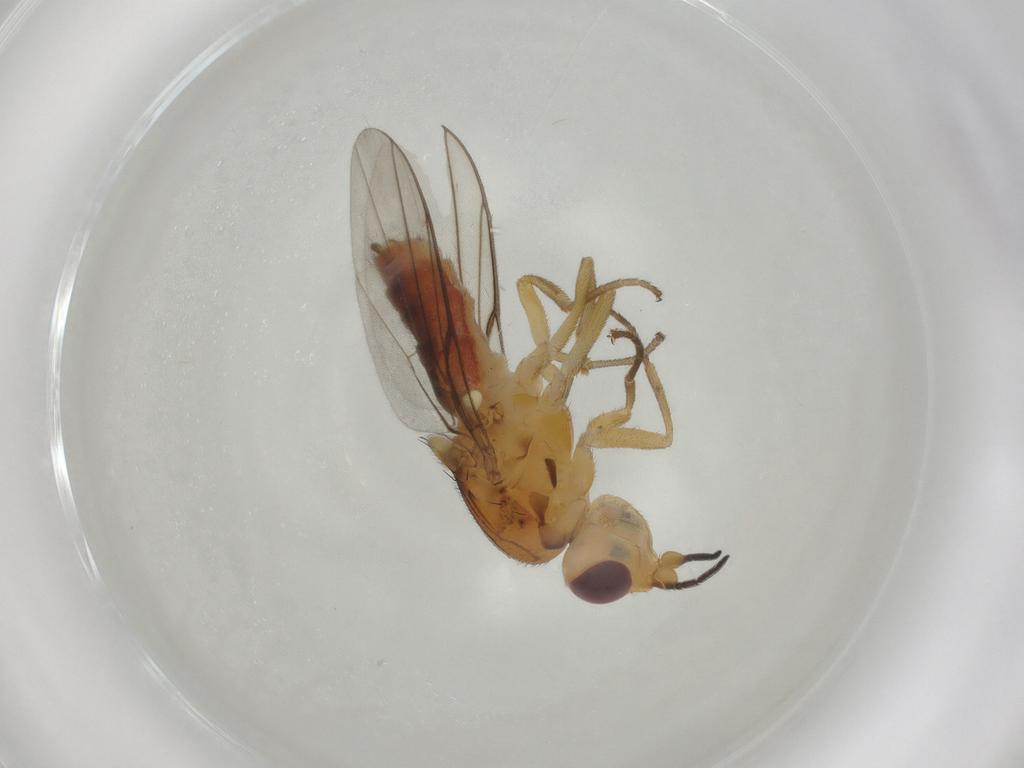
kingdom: Animalia
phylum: Arthropoda
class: Insecta
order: Diptera
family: Chloropidae
